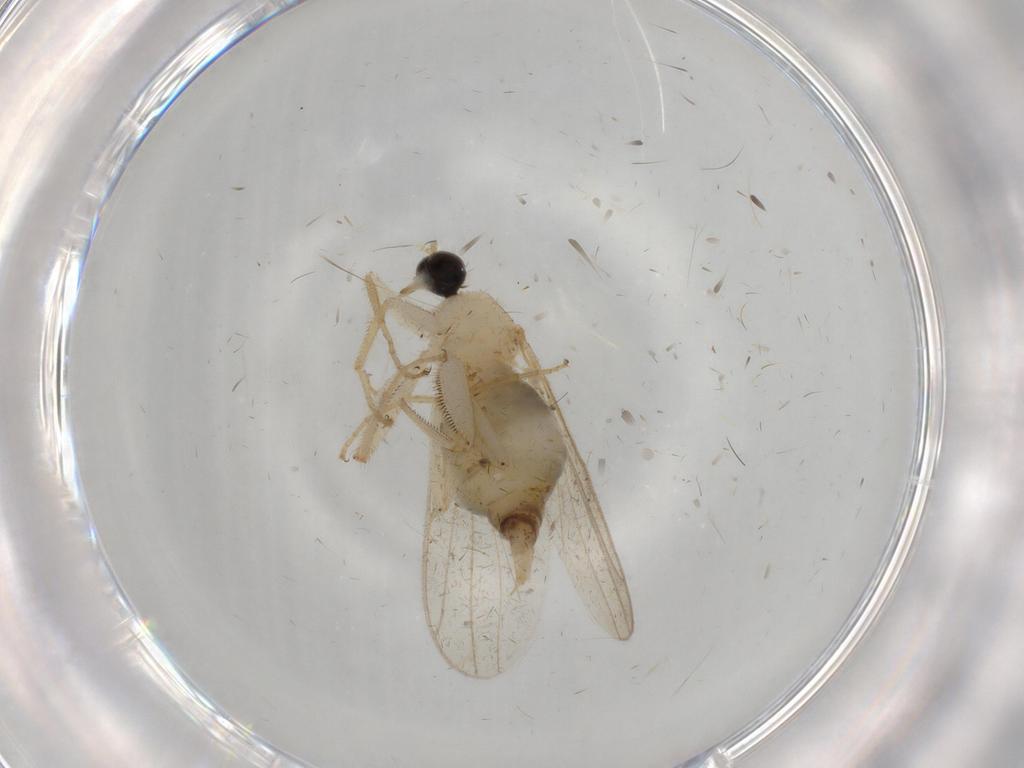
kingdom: Animalia
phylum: Arthropoda
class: Insecta
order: Diptera
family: Hybotidae
